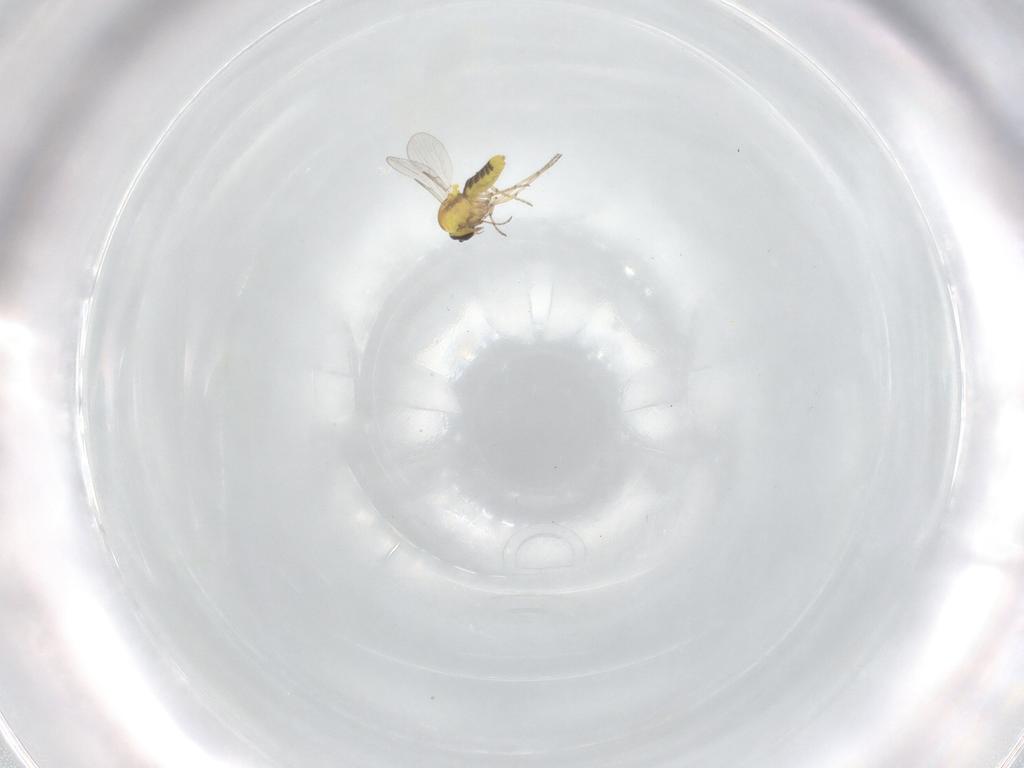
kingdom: Animalia
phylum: Arthropoda
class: Insecta
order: Diptera
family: Ceratopogonidae
